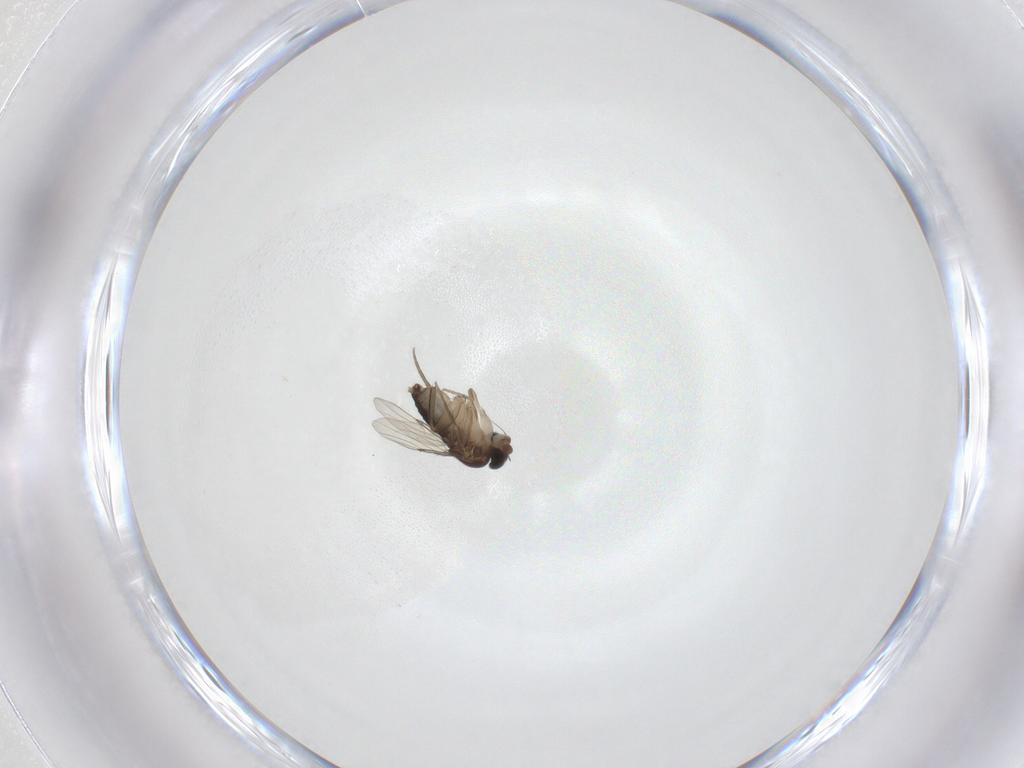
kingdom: Animalia
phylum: Arthropoda
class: Insecta
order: Diptera
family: Phoridae
